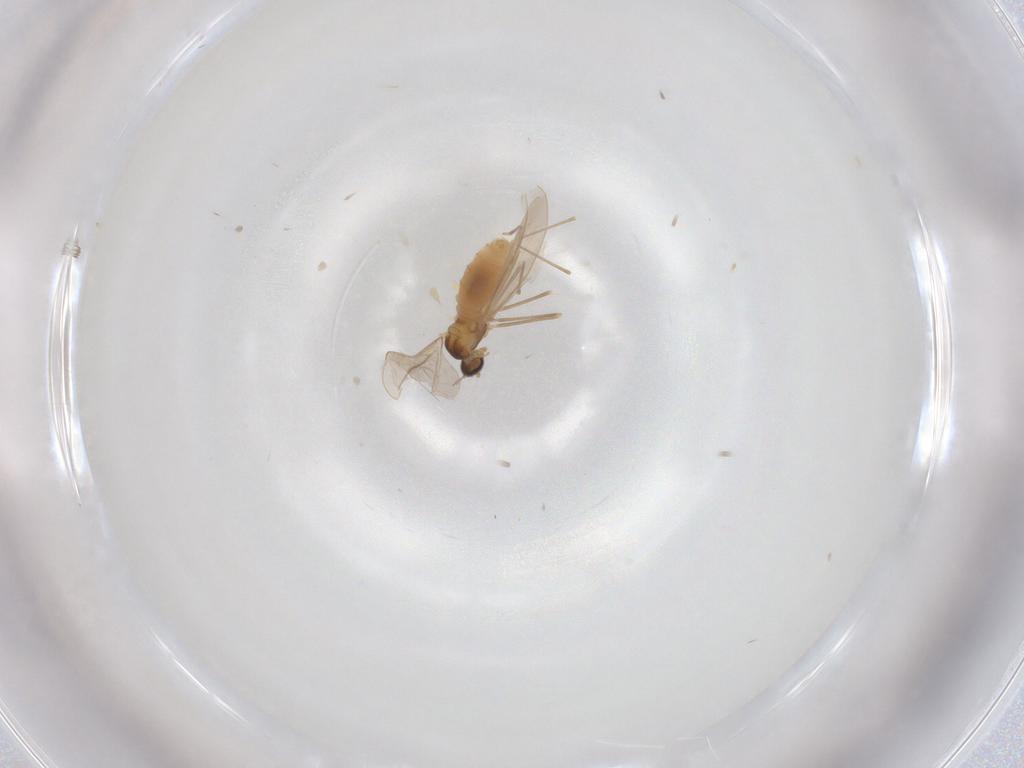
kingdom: Animalia
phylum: Arthropoda
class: Insecta
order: Diptera
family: Cecidomyiidae
